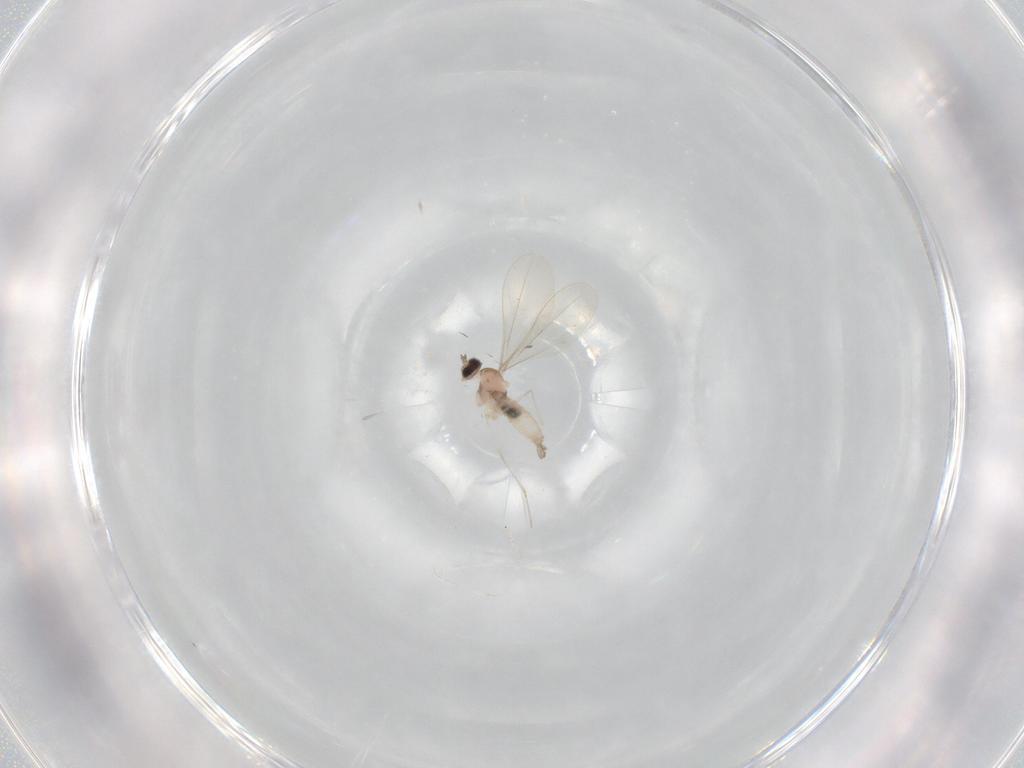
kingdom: Animalia
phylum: Arthropoda
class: Insecta
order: Diptera
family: Cecidomyiidae
